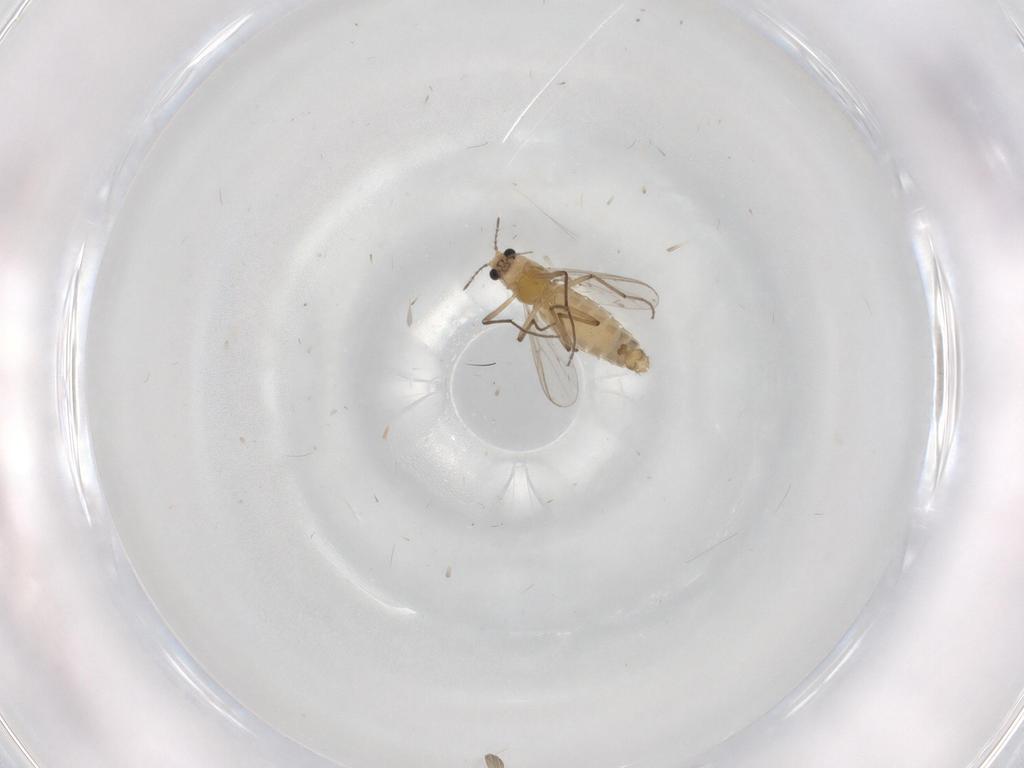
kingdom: Animalia
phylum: Arthropoda
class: Insecta
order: Diptera
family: Chironomidae
